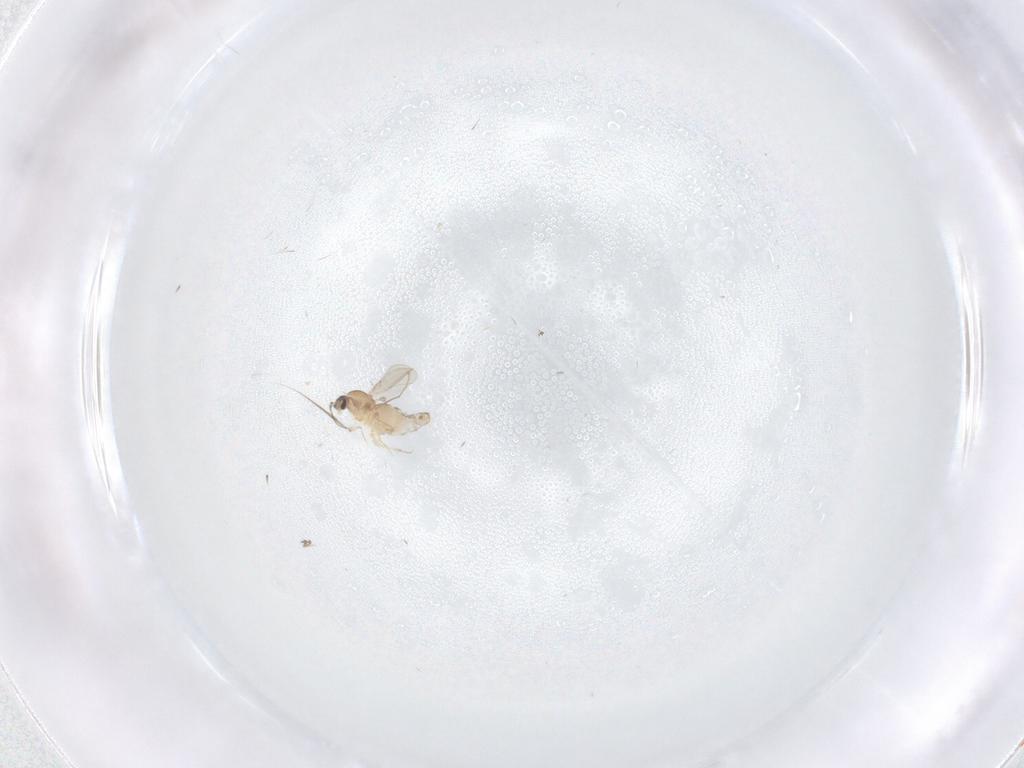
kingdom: Animalia
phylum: Arthropoda
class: Insecta
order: Diptera
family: Sciaridae
